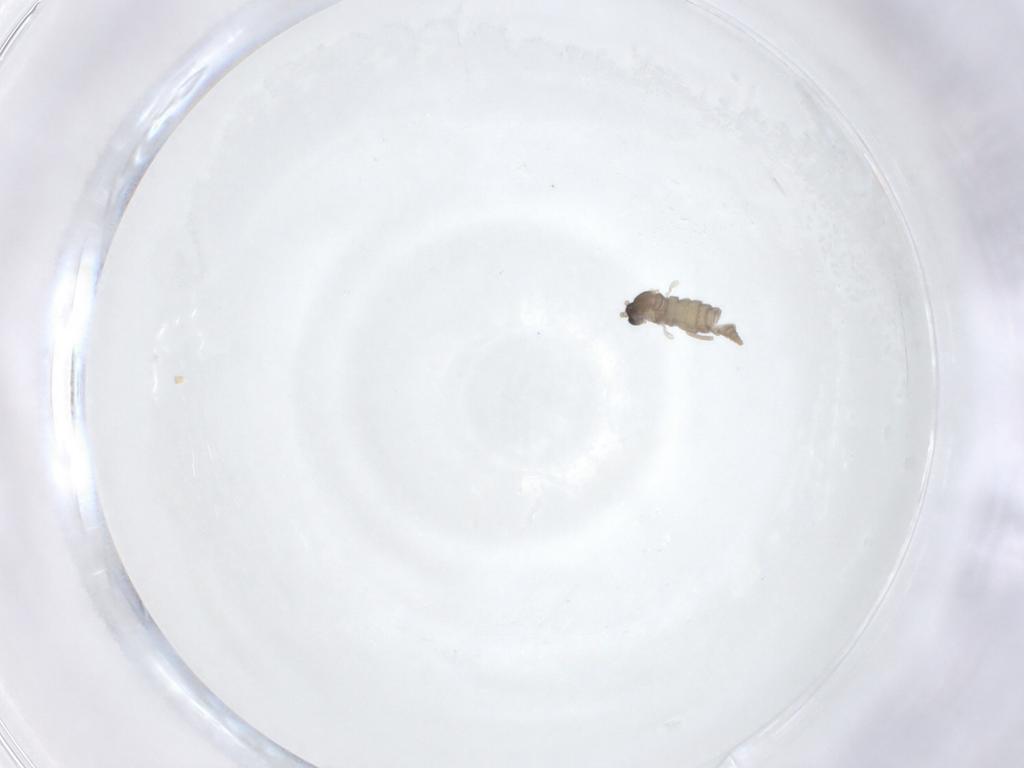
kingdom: Animalia
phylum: Arthropoda
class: Insecta
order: Diptera
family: Cecidomyiidae
